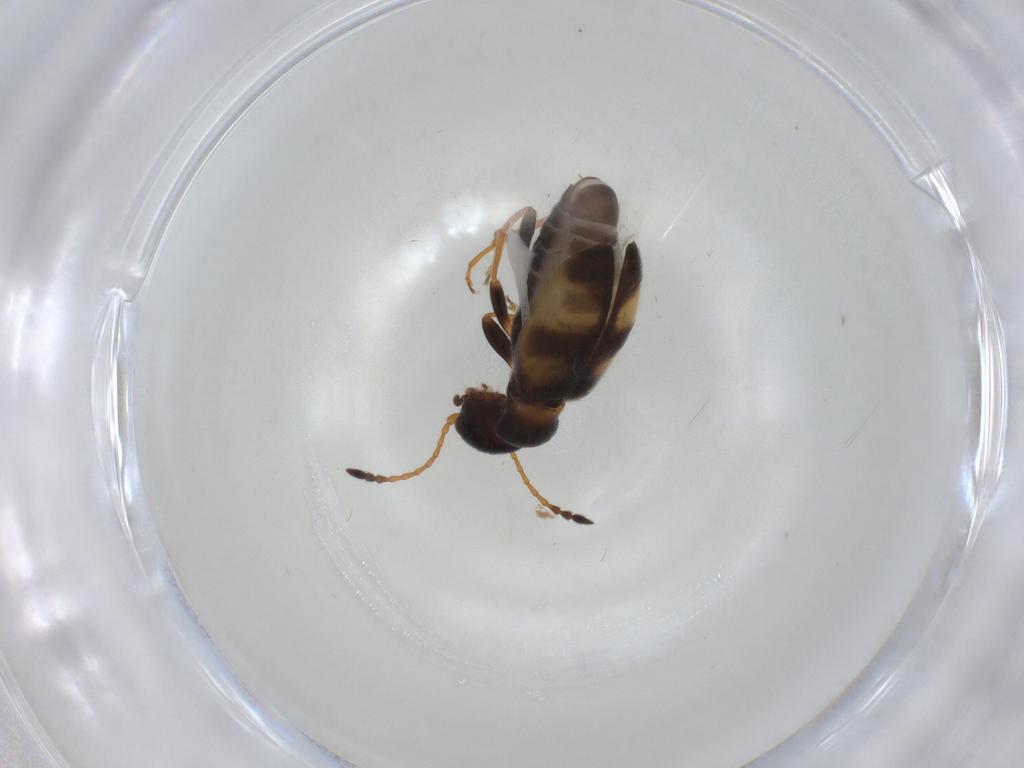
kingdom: Animalia
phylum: Arthropoda
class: Insecta
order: Coleoptera
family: Anthicidae
